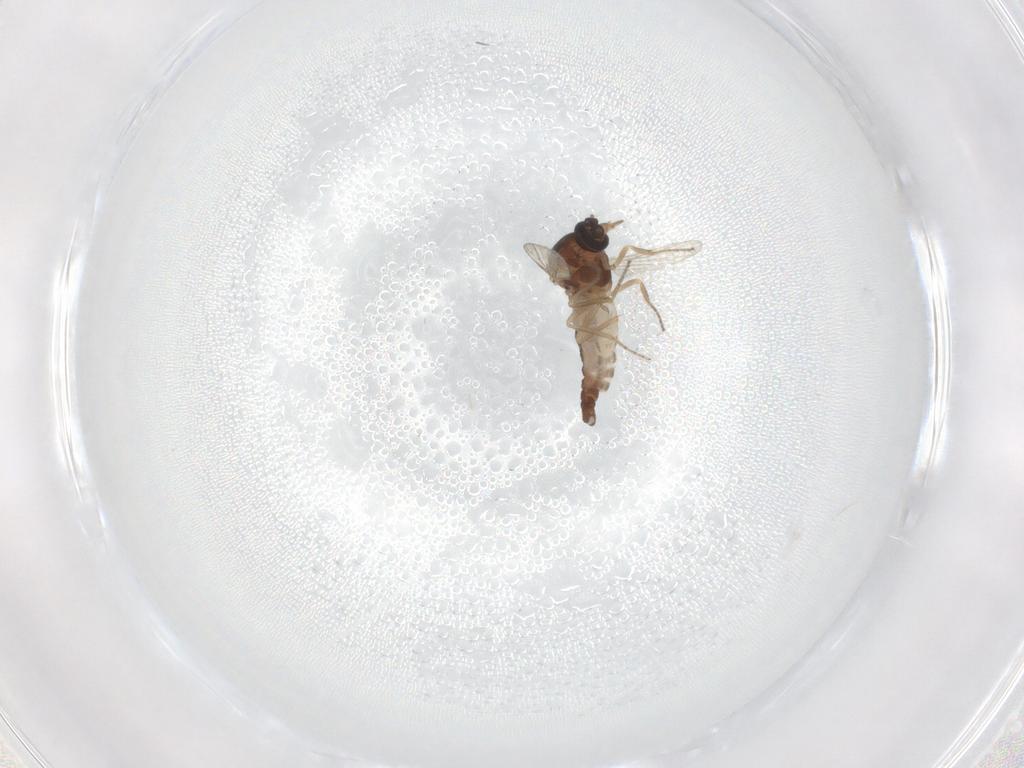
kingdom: Animalia
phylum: Arthropoda
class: Insecta
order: Diptera
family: Ceratopogonidae
